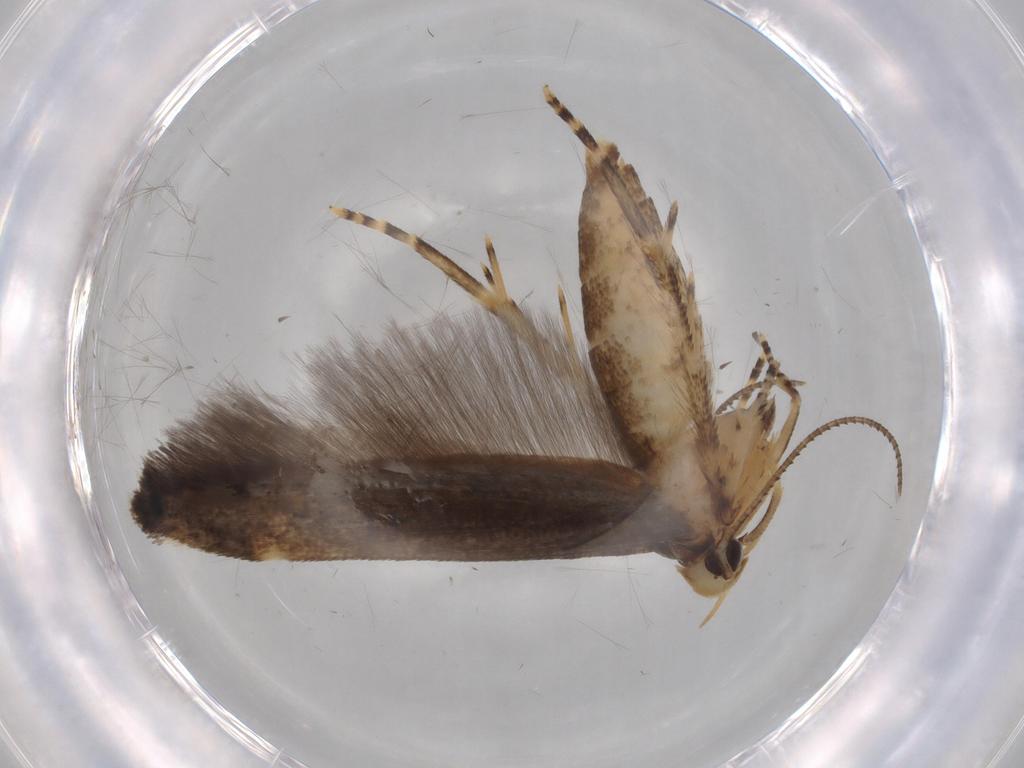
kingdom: Animalia
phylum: Arthropoda
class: Insecta
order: Lepidoptera
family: Cosmopterigidae
